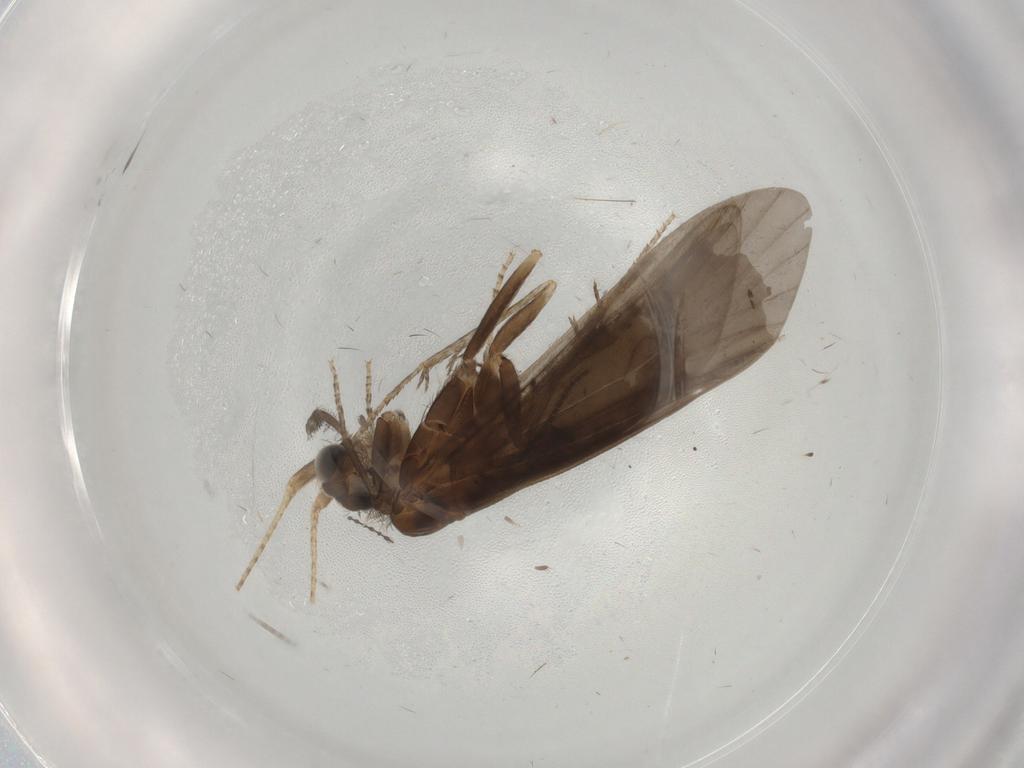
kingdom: Animalia
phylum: Arthropoda
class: Insecta
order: Trichoptera
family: Helicopsychidae
